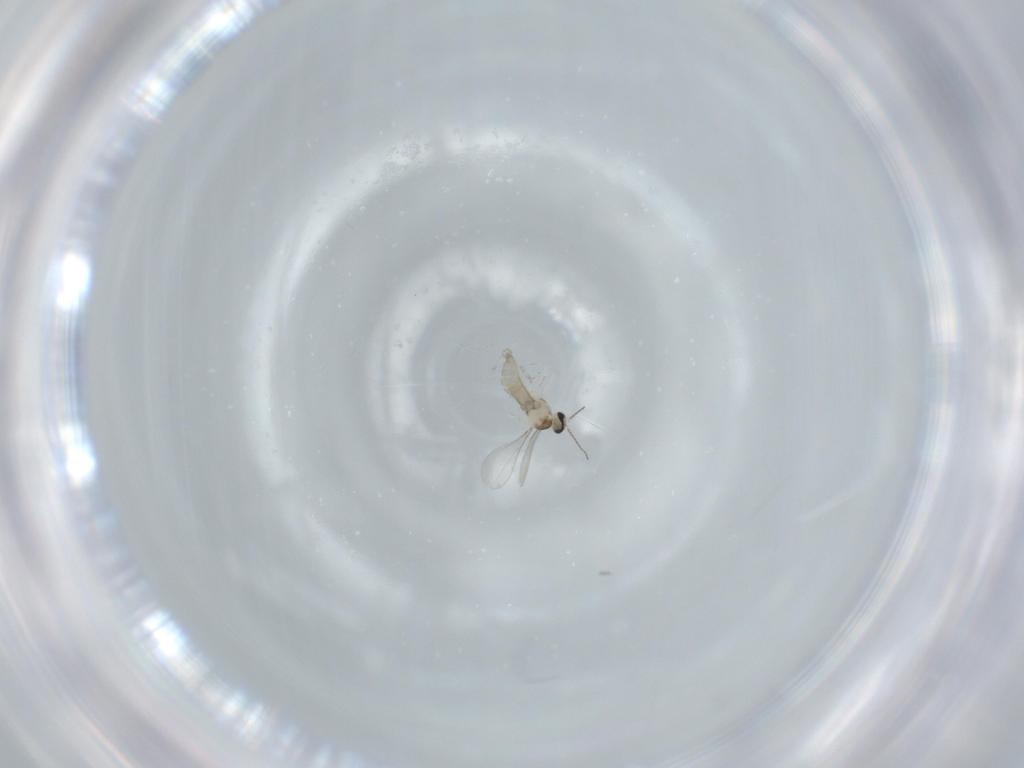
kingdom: Animalia
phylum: Arthropoda
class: Insecta
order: Diptera
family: Cecidomyiidae
